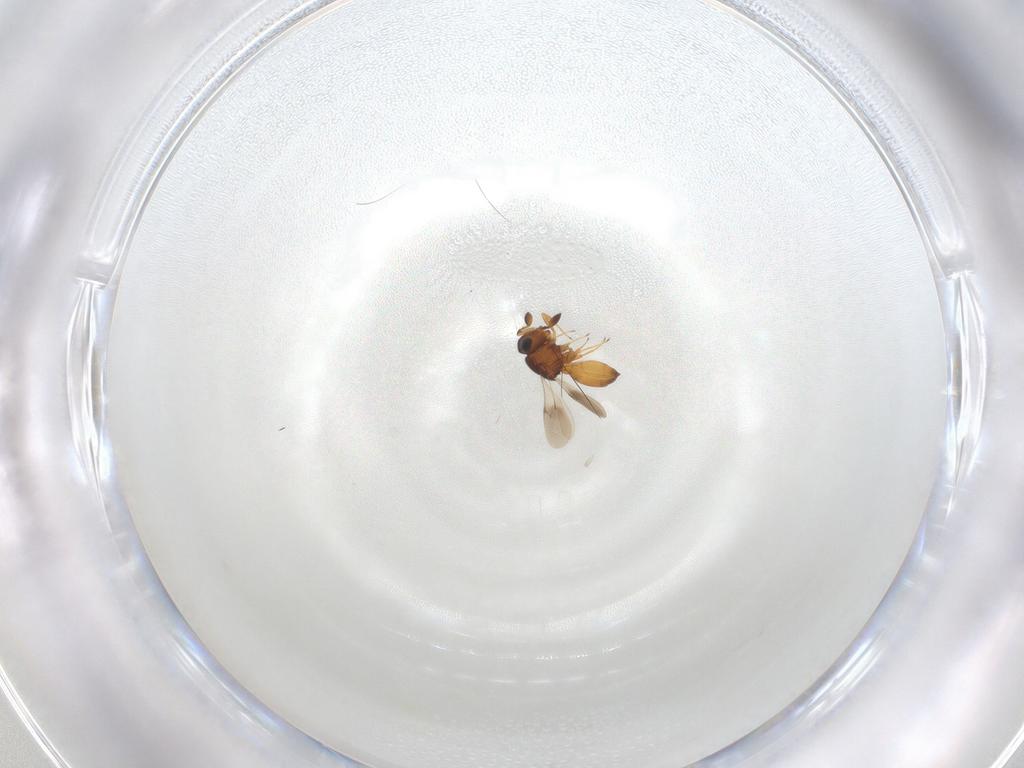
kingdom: Animalia
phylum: Arthropoda
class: Insecta
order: Hymenoptera
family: Scelionidae
